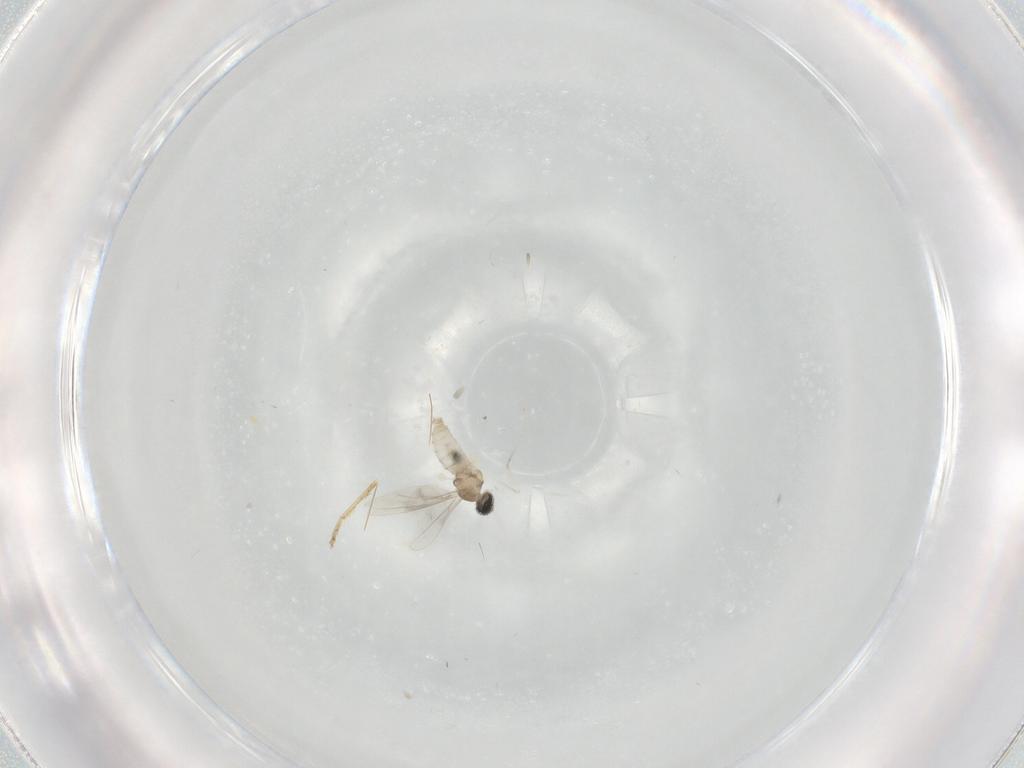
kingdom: Animalia
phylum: Arthropoda
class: Insecta
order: Diptera
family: Cecidomyiidae
